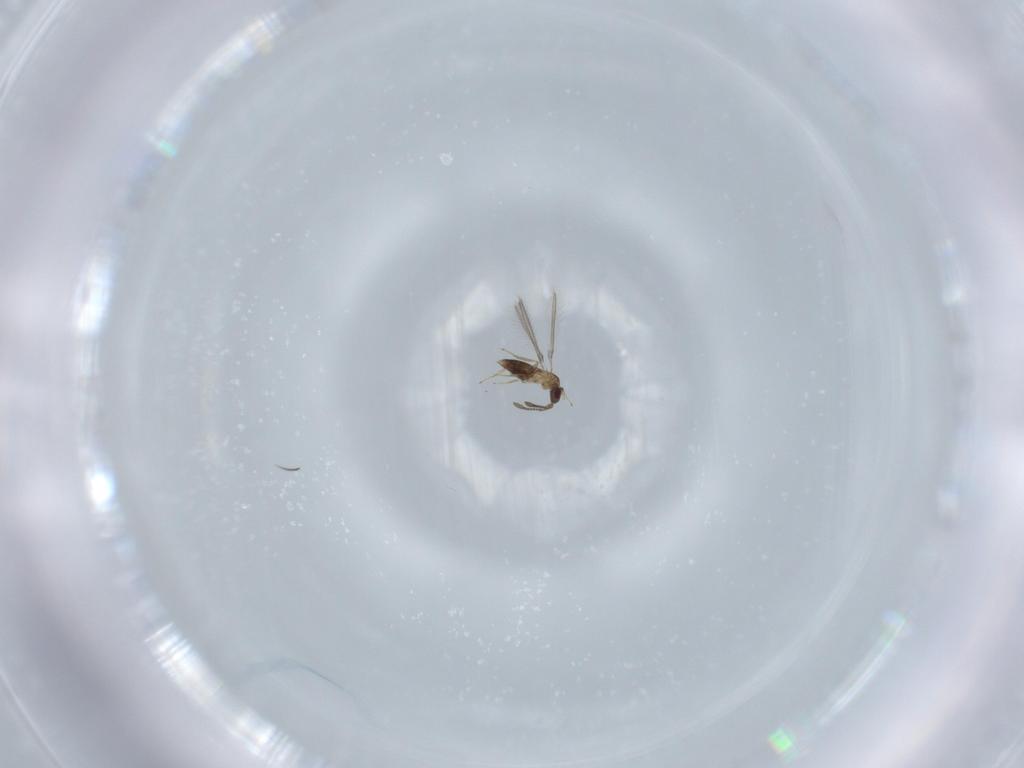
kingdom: Animalia
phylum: Arthropoda
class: Insecta
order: Hymenoptera
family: Mymaridae
